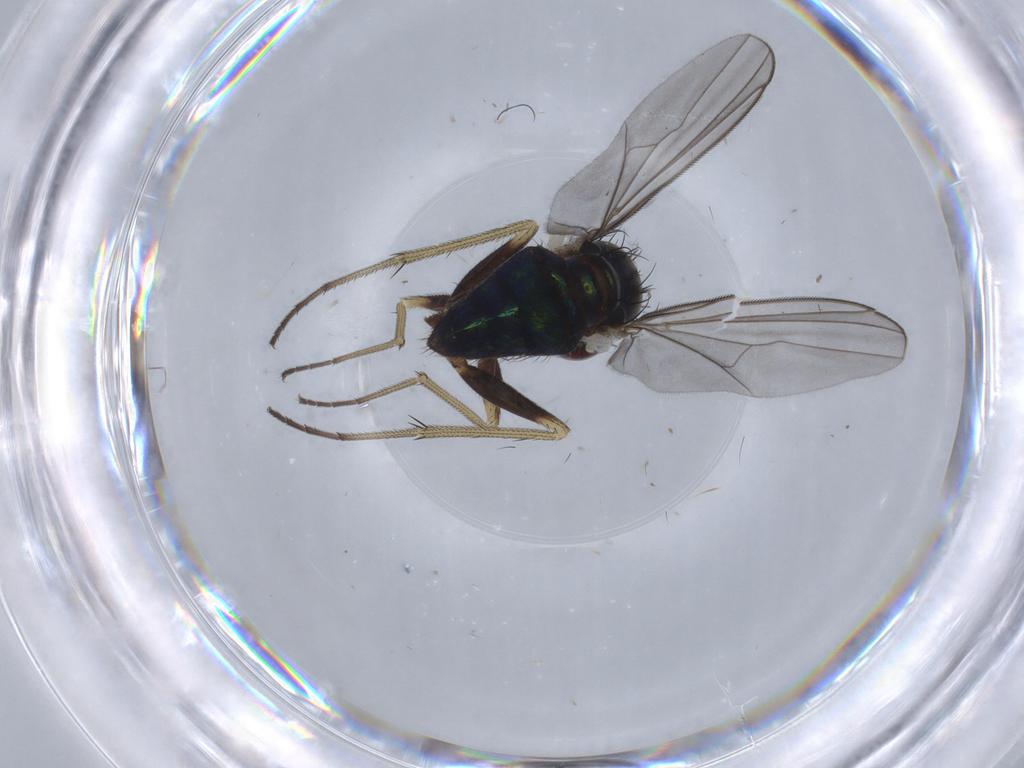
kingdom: Animalia
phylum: Arthropoda
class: Insecta
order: Diptera
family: Dolichopodidae
